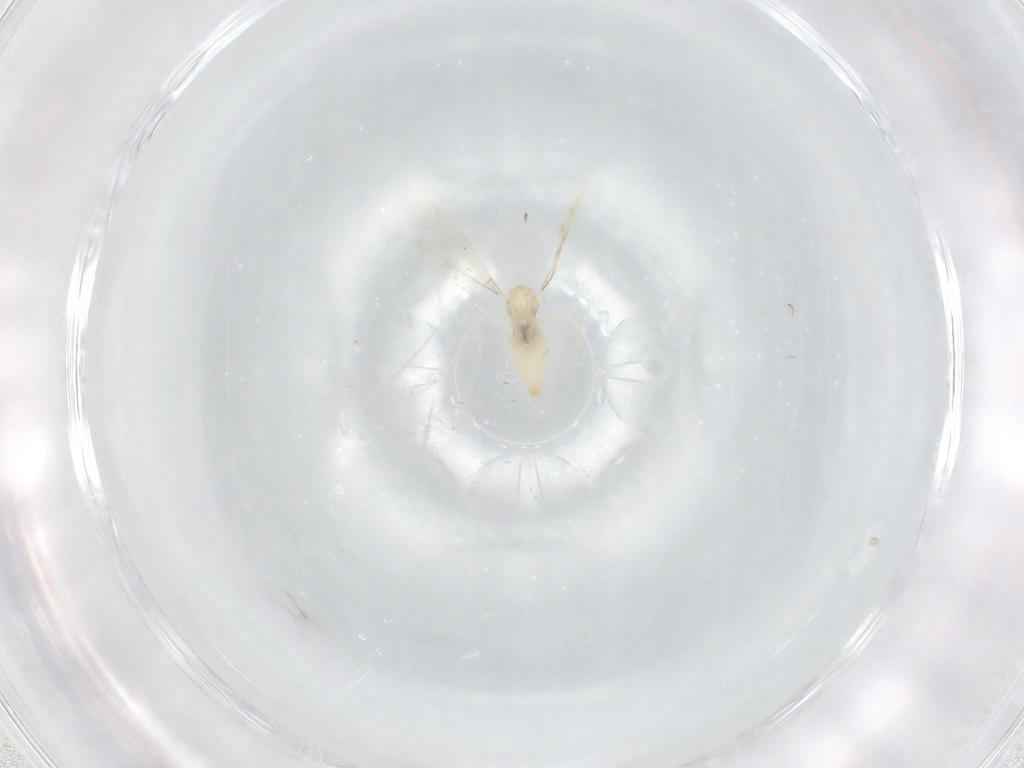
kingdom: Animalia
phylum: Arthropoda
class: Insecta
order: Diptera
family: Cecidomyiidae
